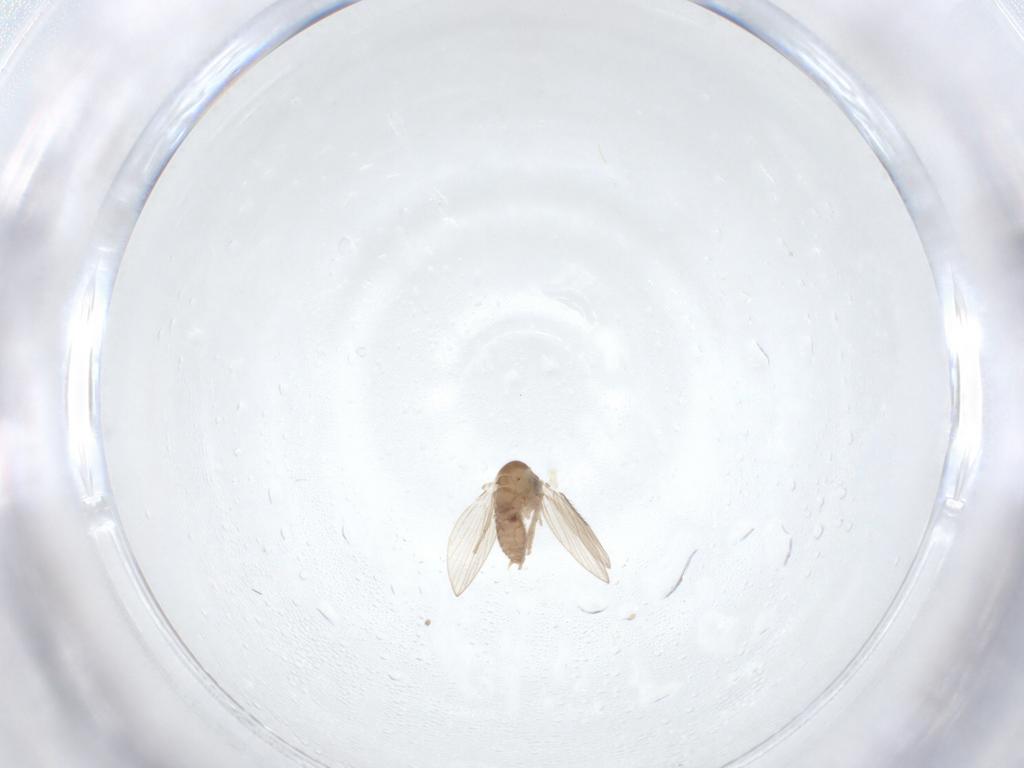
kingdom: Animalia
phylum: Arthropoda
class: Insecta
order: Diptera
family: Psychodidae
